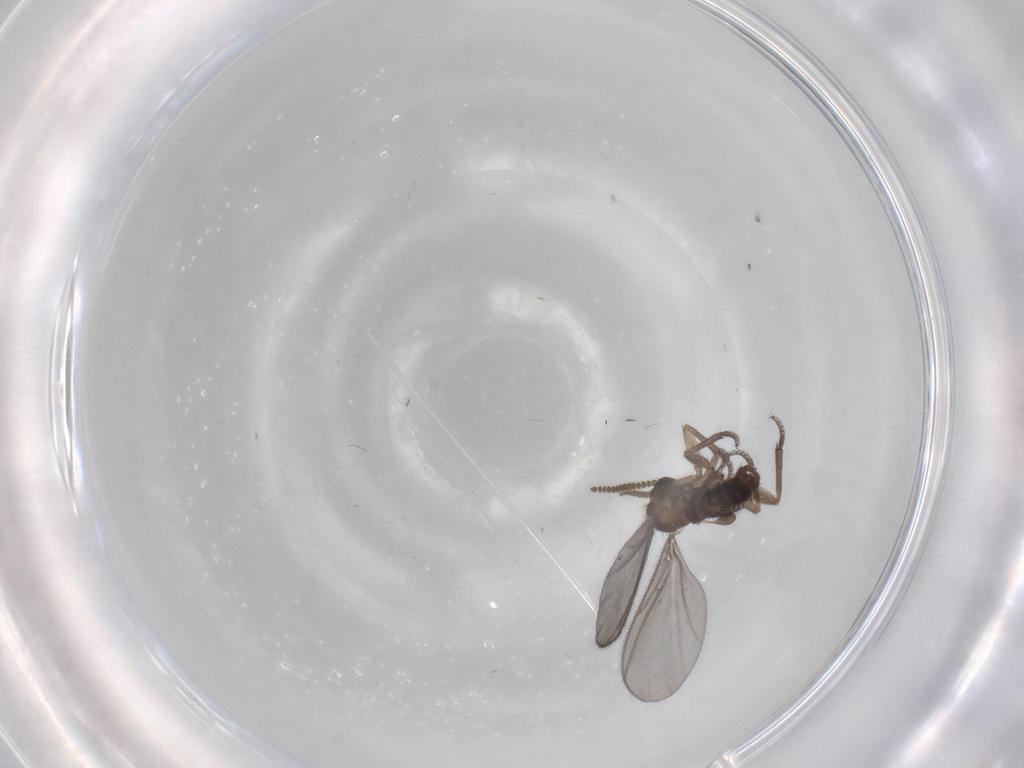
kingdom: Animalia
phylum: Arthropoda
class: Insecta
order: Diptera
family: Sciaridae
